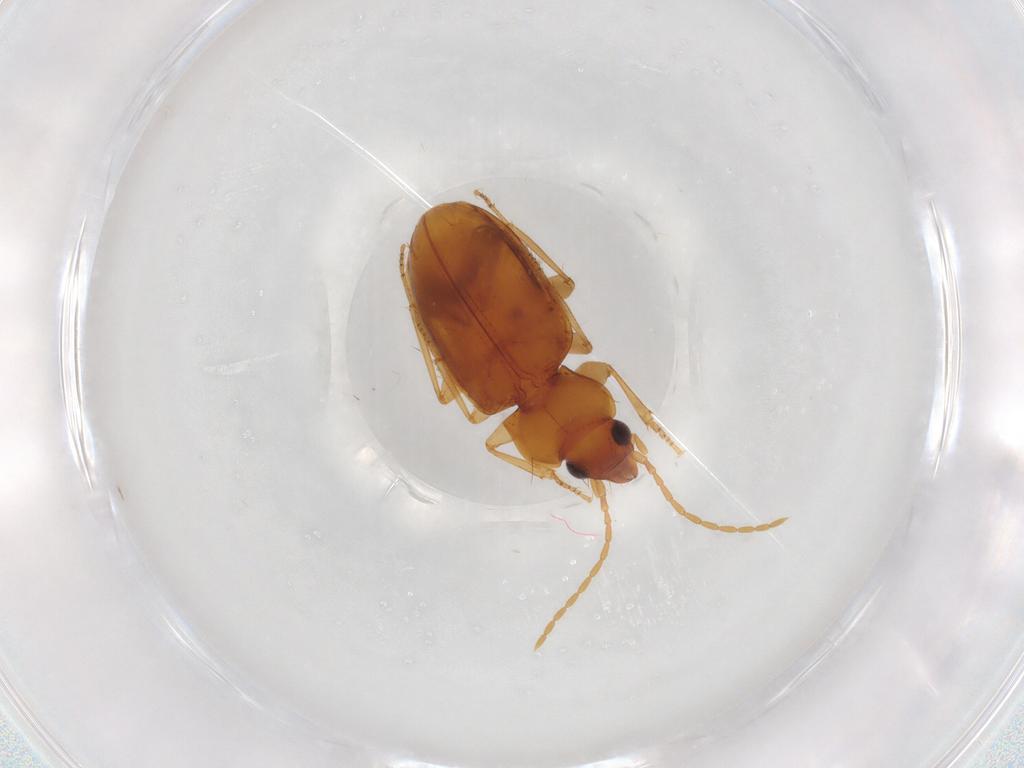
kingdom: Animalia
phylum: Arthropoda
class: Insecta
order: Coleoptera
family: Carabidae
